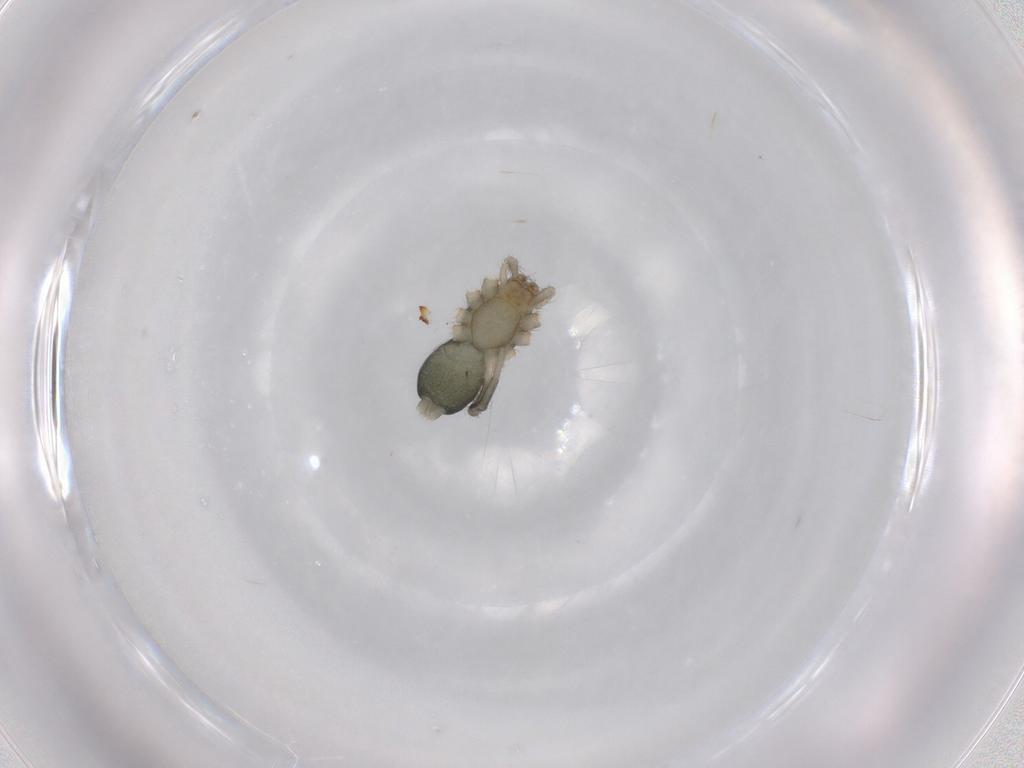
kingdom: Animalia
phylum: Arthropoda
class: Arachnida
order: Araneae
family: Gnaphosidae
